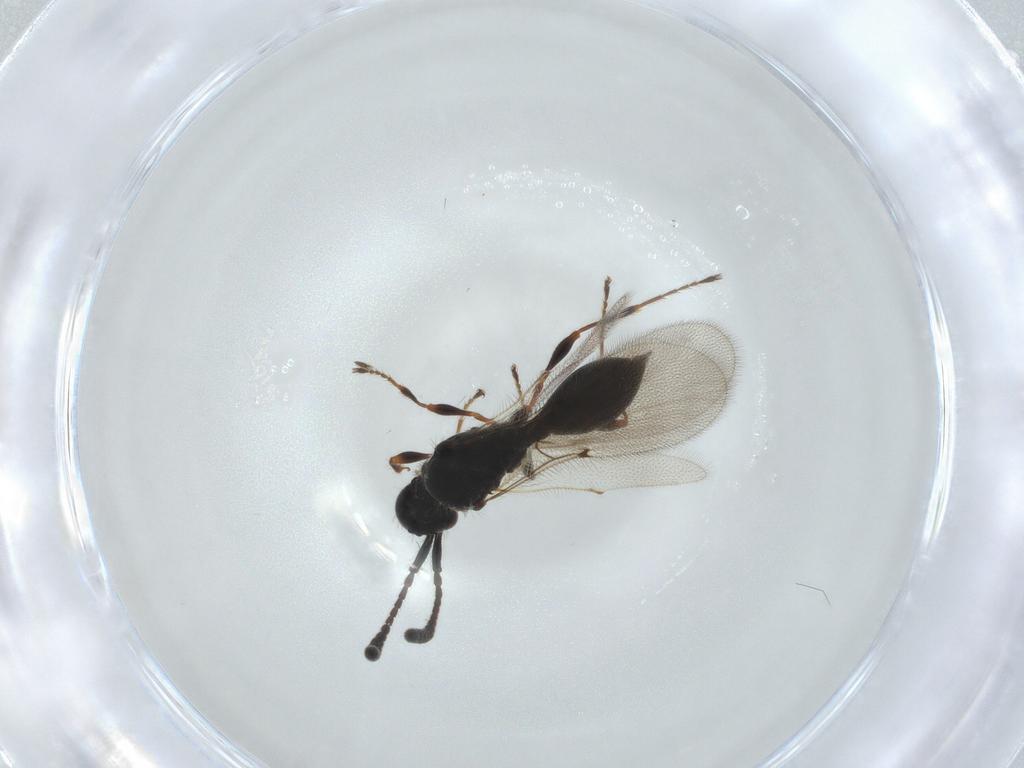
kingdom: Animalia
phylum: Arthropoda
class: Insecta
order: Hymenoptera
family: Diapriidae
